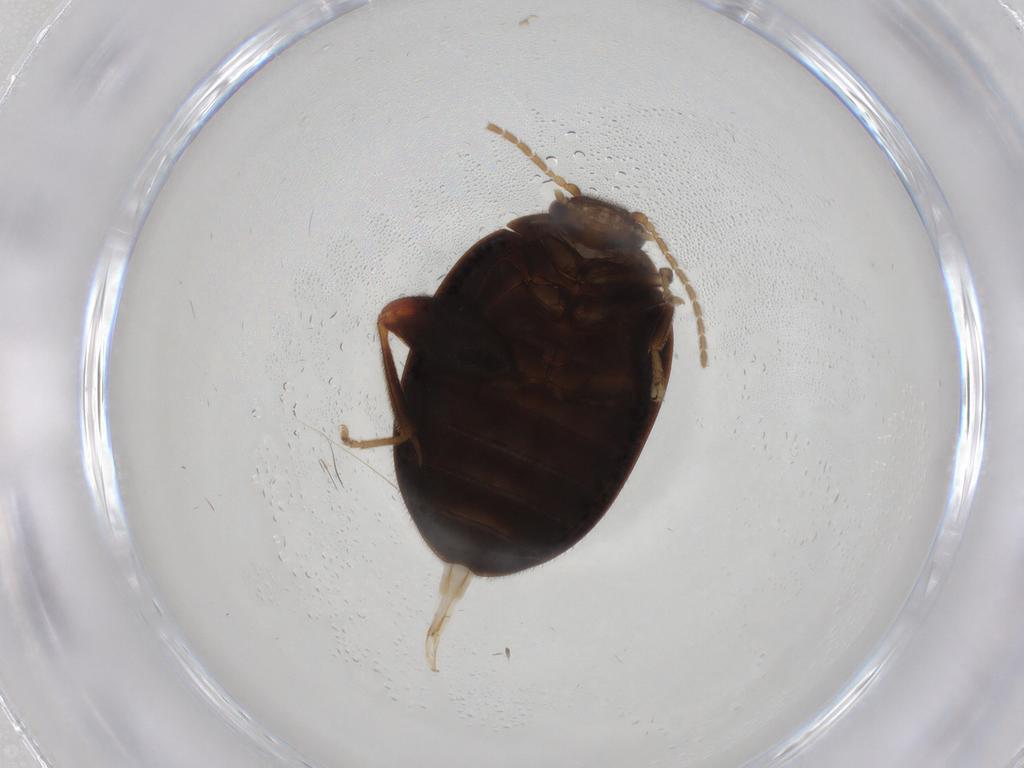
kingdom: Animalia
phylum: Arthropoda
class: Insecta
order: Coleoptera
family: Scirtidae
